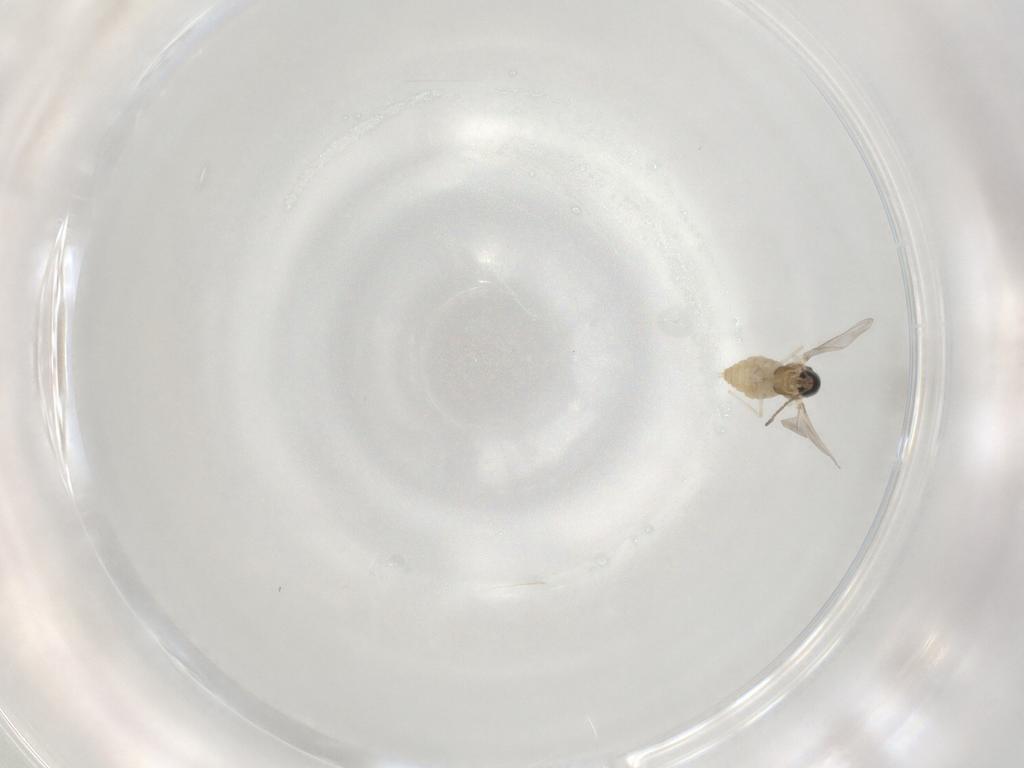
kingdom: Animalia
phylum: Arthropoda
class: Insecta
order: Diptera
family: Cecidomyiidae
